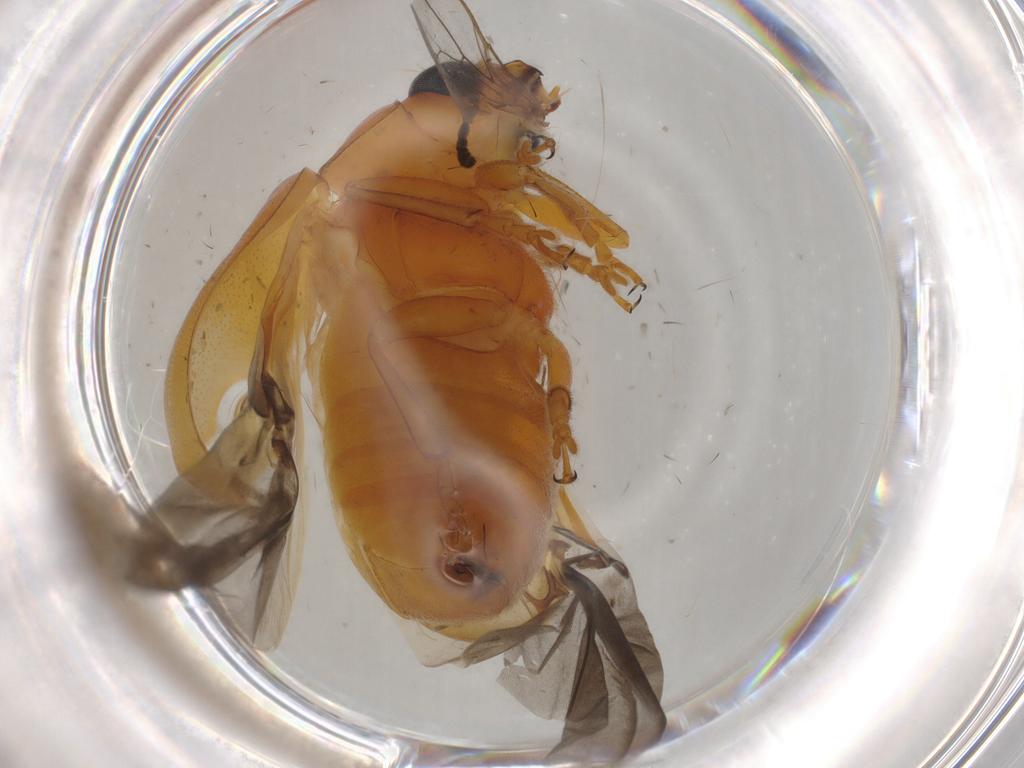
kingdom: Animalia
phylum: Arthropoda
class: Insecta
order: Coleoptera
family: Chrysomelidae
